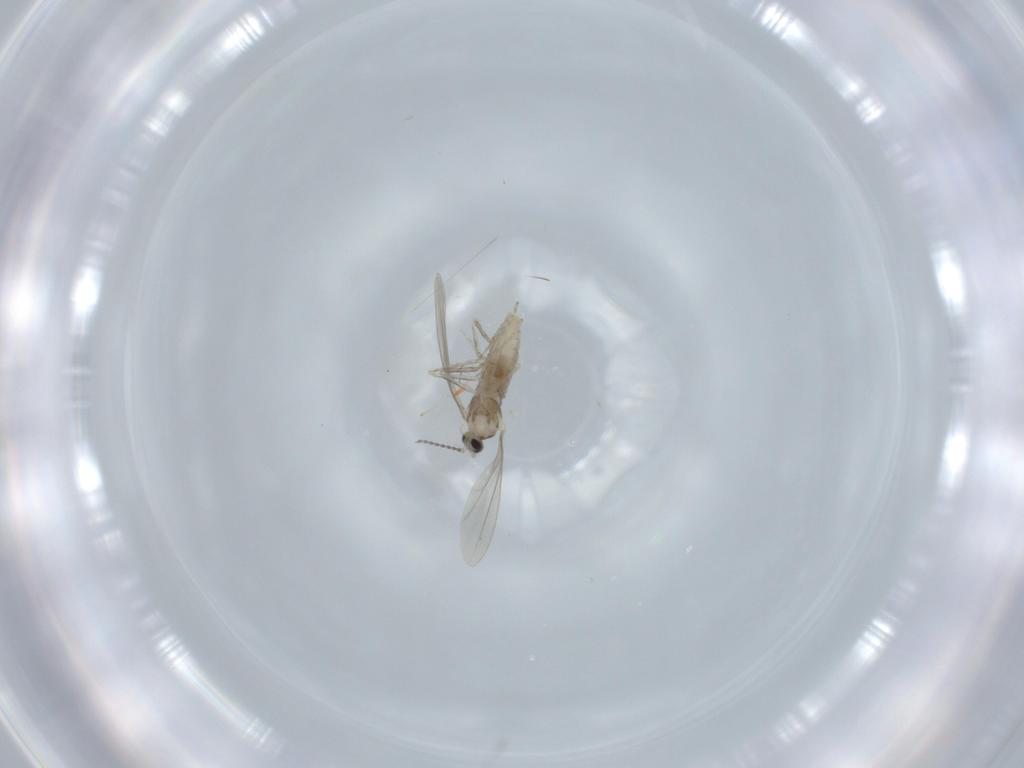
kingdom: Animalia
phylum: Arthropoda
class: Insecta
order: Diptera
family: Cecidomyiidae
